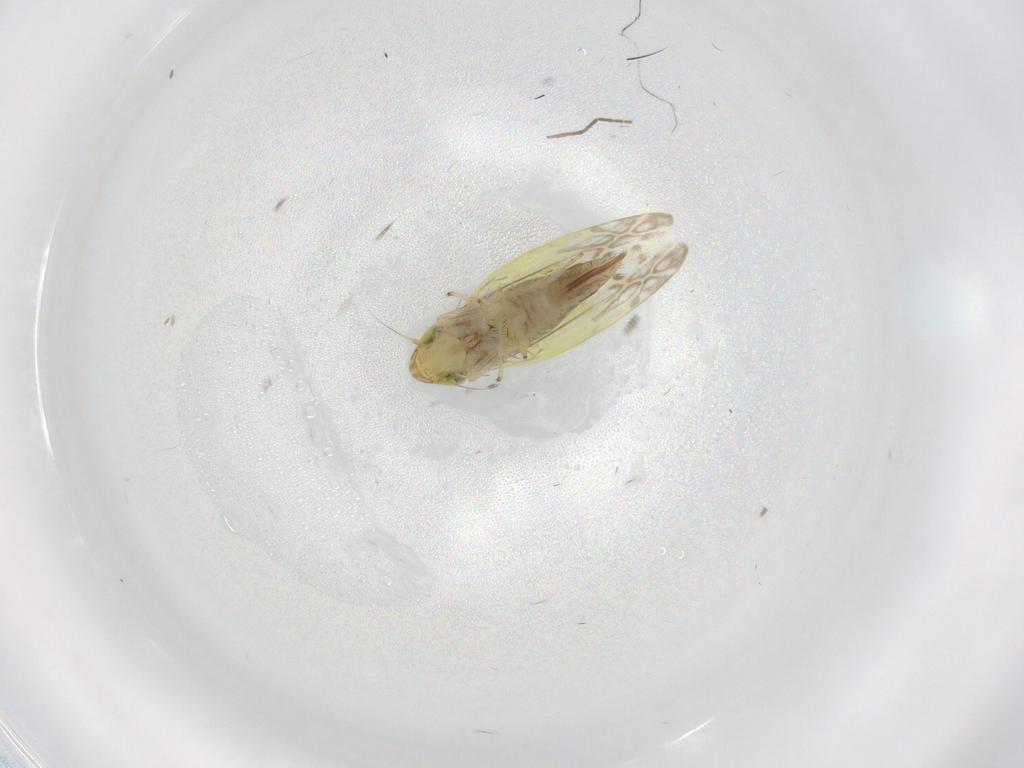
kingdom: Animalia
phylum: Arthropoda
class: Insecta
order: Hemiptera
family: Cicadellidae
